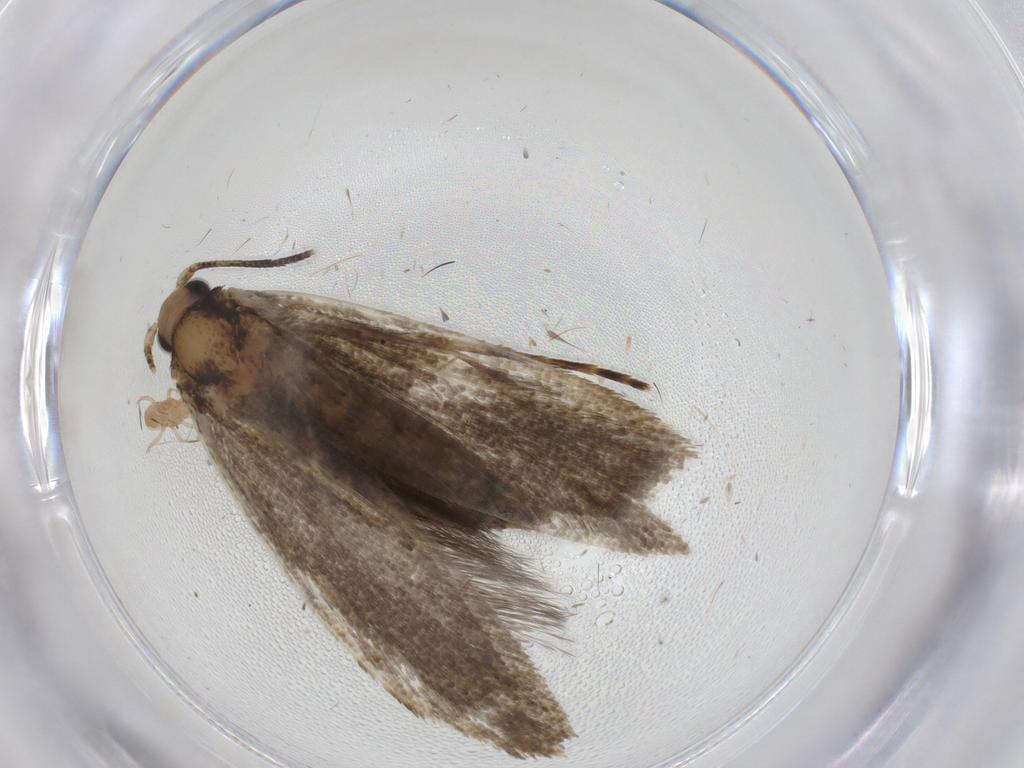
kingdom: Animalia
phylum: Arthropoda
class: Insecta
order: Lepidoptera
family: Tineidae
